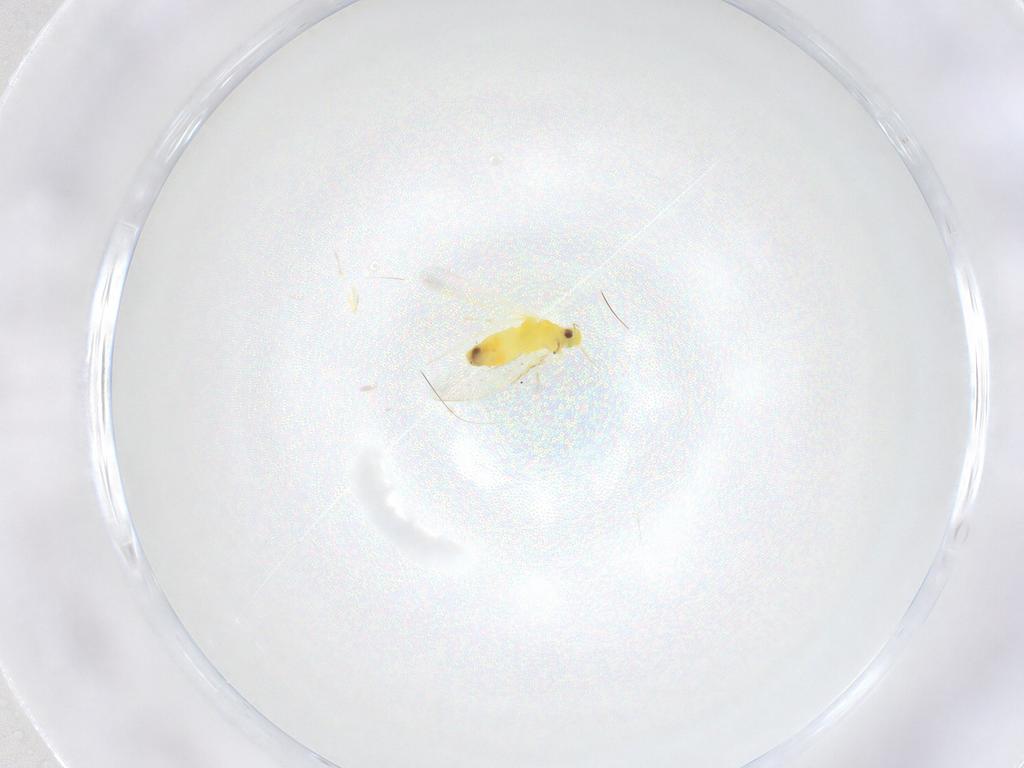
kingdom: Animalia
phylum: Arthropoda
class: Insecta
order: Hemiptera
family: Aleyrodidae
